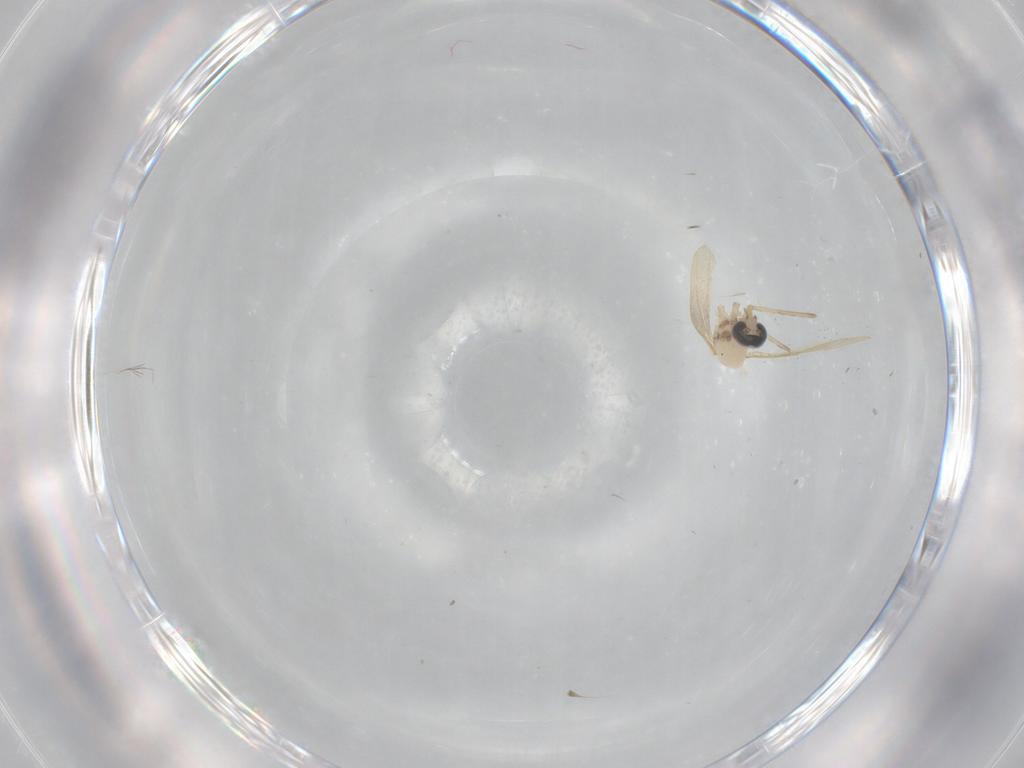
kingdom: Animalia
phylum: Arthropoda
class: Insecta
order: Diptera
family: Cecidomyiidae
